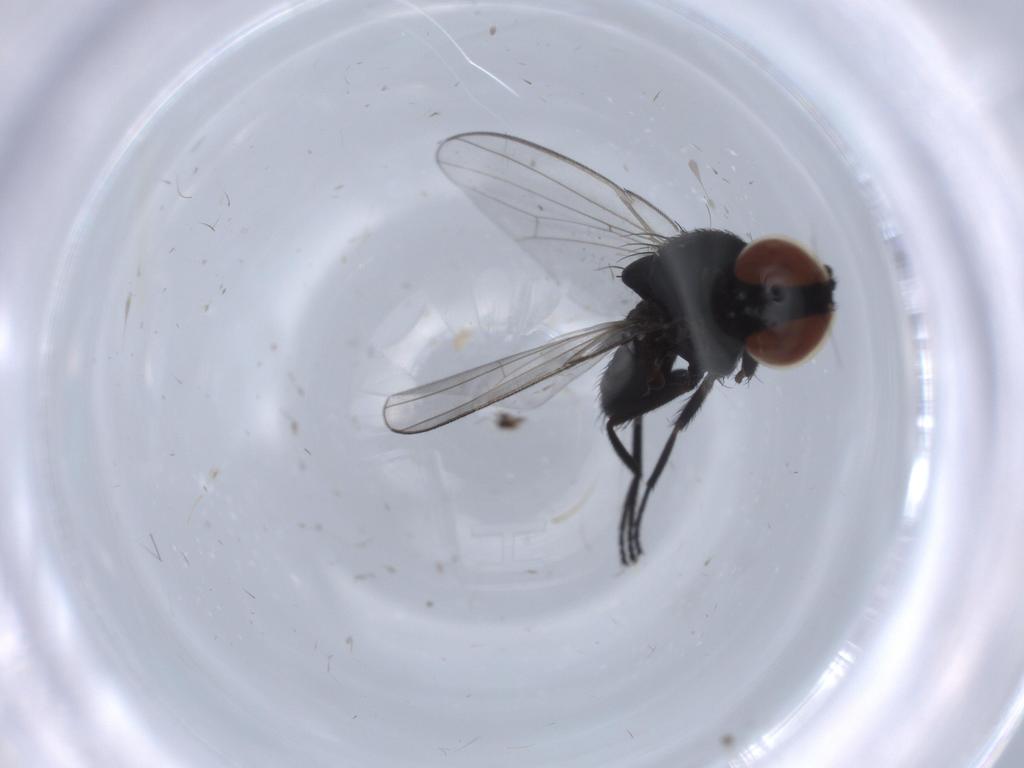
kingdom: Animalia
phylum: Arthropoda
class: Insecta
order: Diptera
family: Milichiidae
